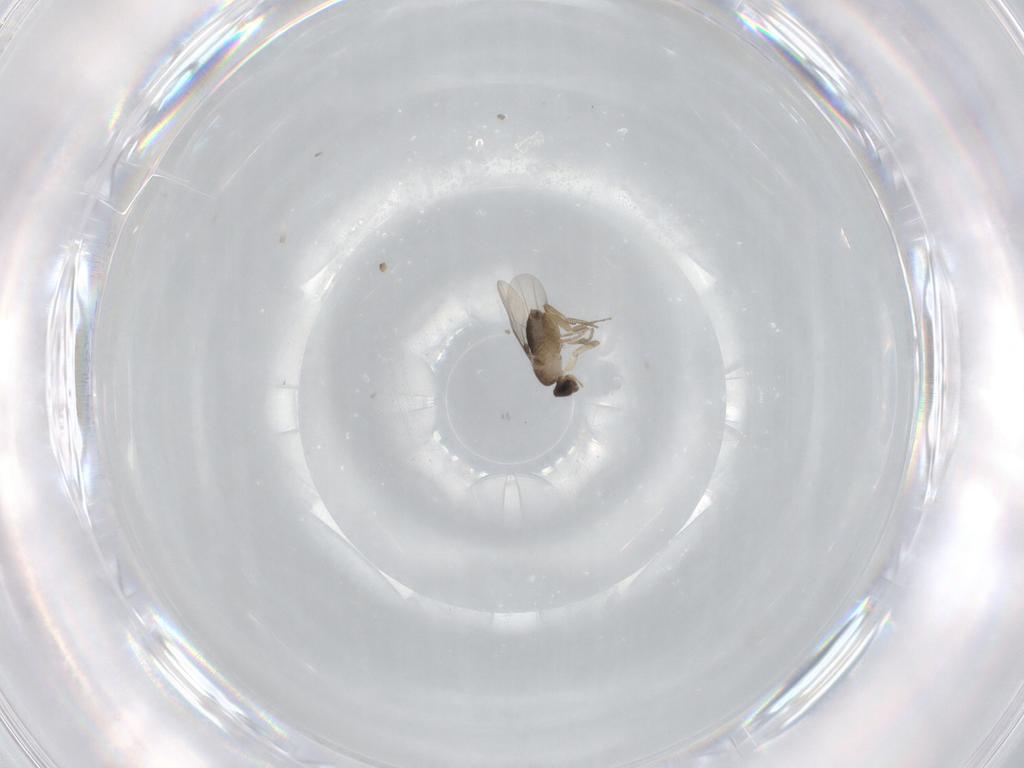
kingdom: Animalia
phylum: Arthropoda
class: Insecta
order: Diptera
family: Phoridae
